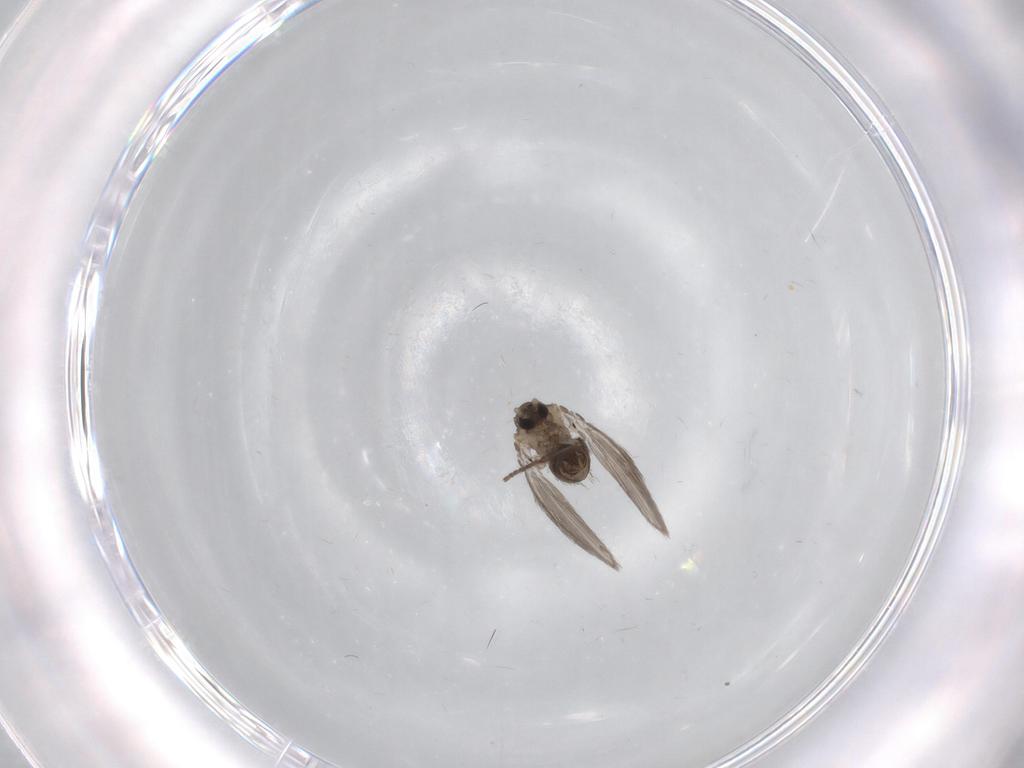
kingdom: Animalia
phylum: Arthropoda
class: Insecta
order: Diptera
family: Psychodidae
